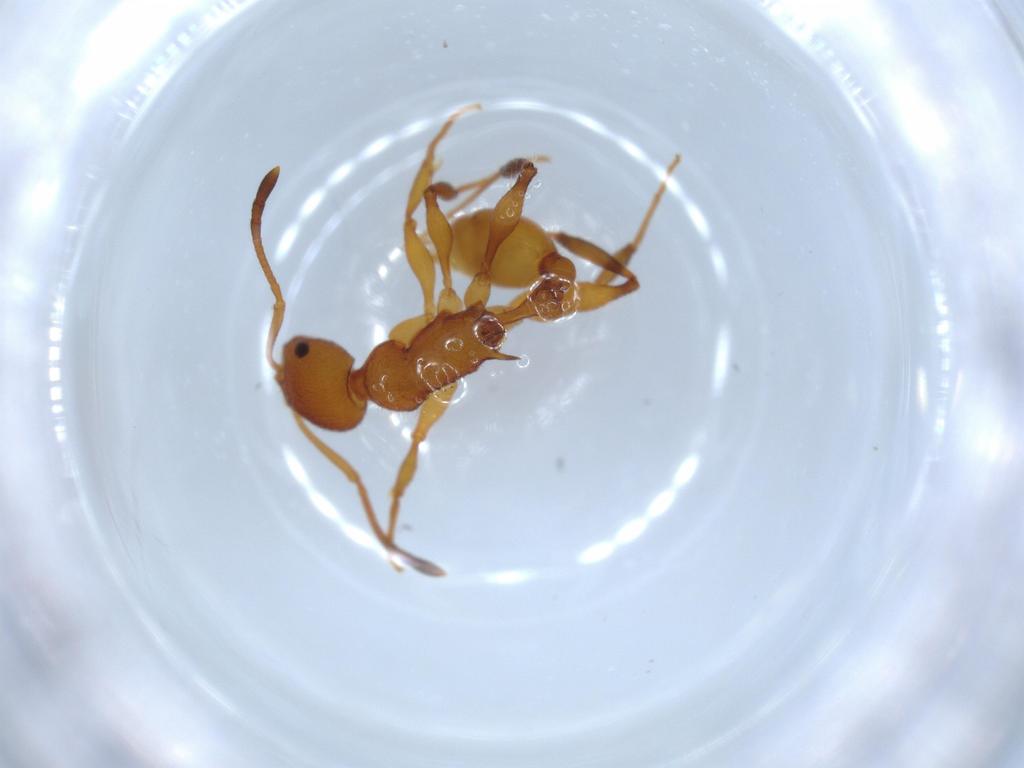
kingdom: Animalia
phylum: Arthropoda
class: Insecta
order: Hymenoptera
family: Formicidae
